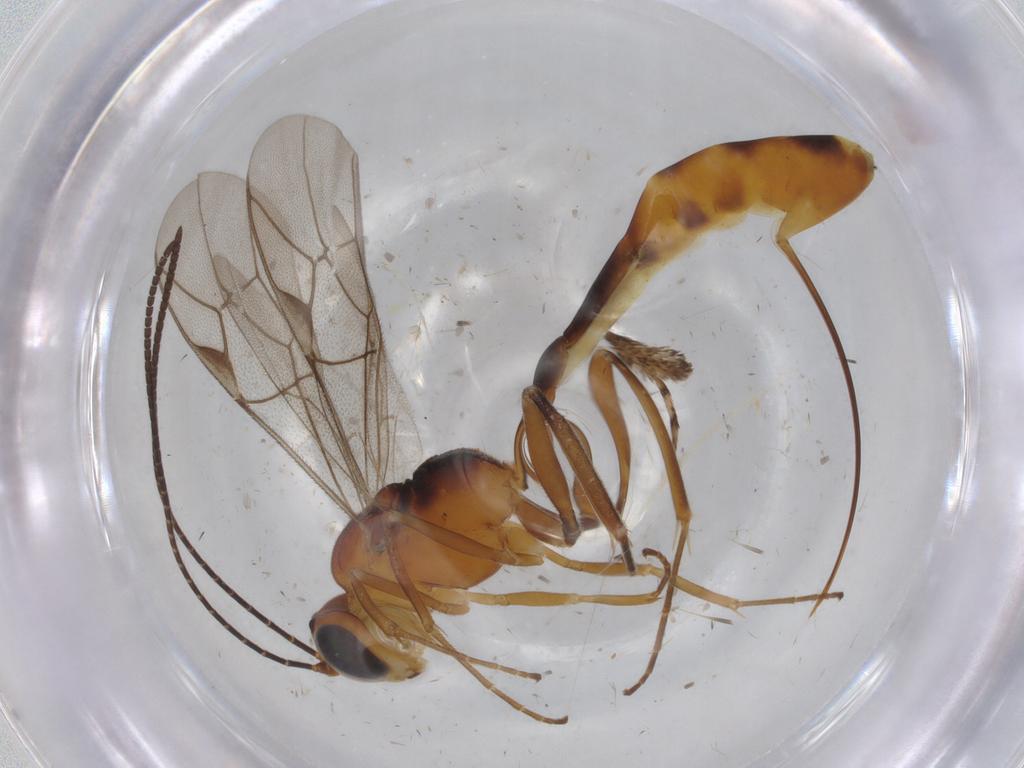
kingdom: Animalia
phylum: Arthropoda
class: Insecta
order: Hymenoptera
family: Ichneumonidae
